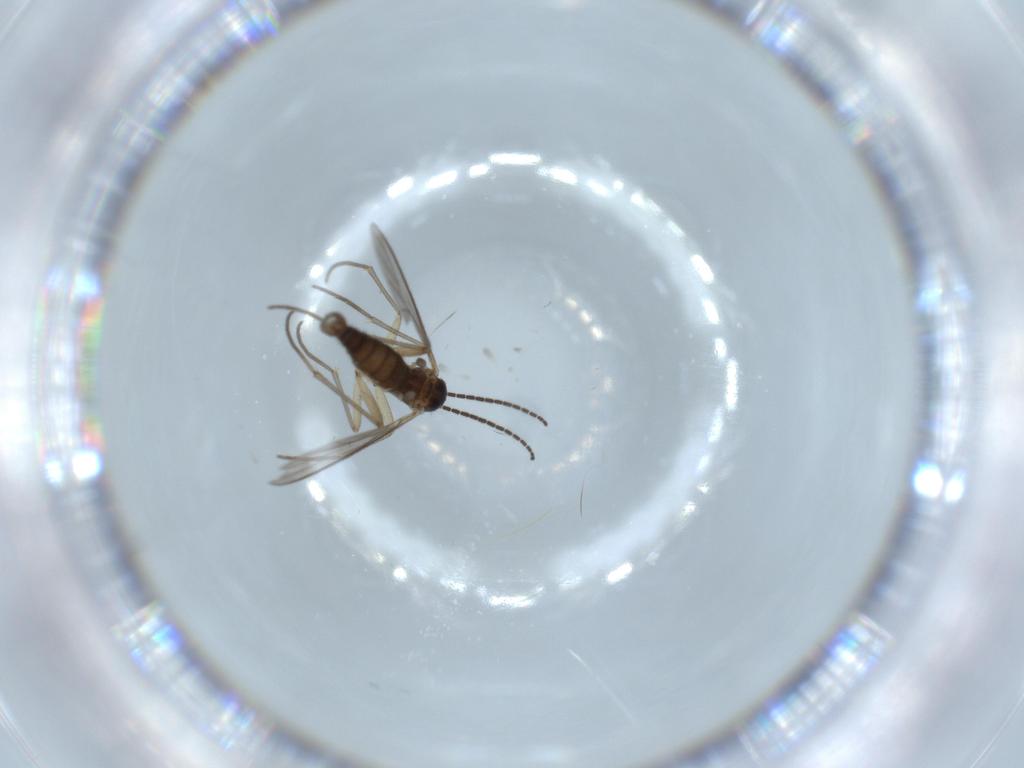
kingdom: Animalia
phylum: Arthropoda
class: Insecta
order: Diptera
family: Sciaridae
